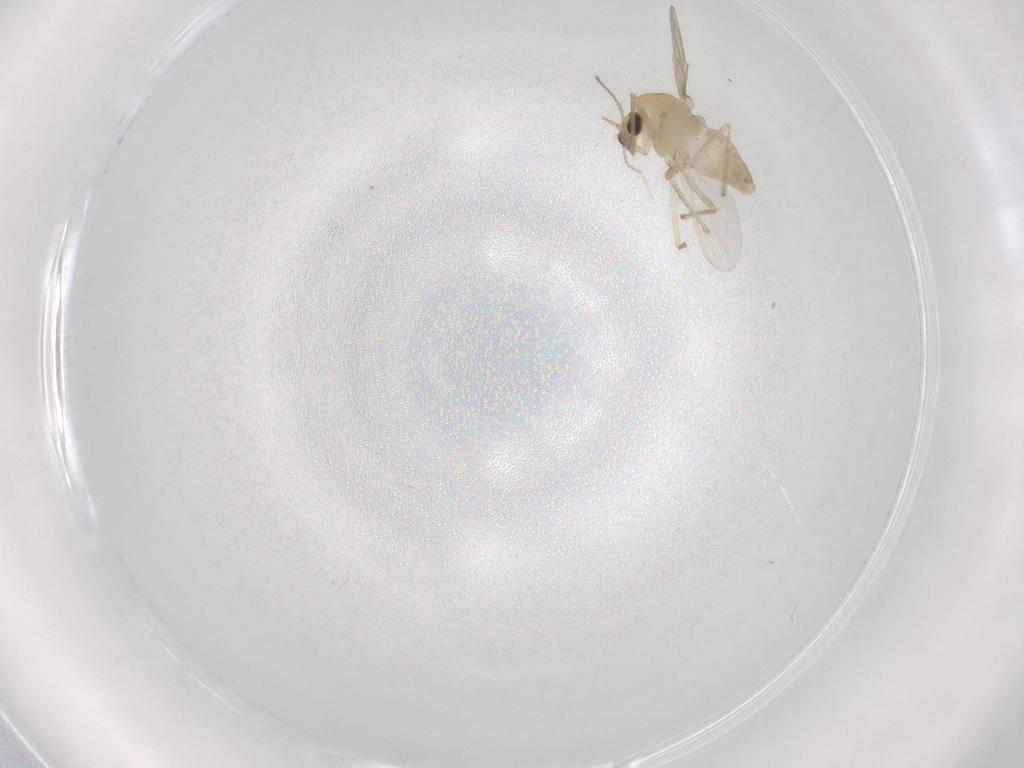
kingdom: Animalia
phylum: Arthropoda
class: Insecta
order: Diptera
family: Chironomidae
